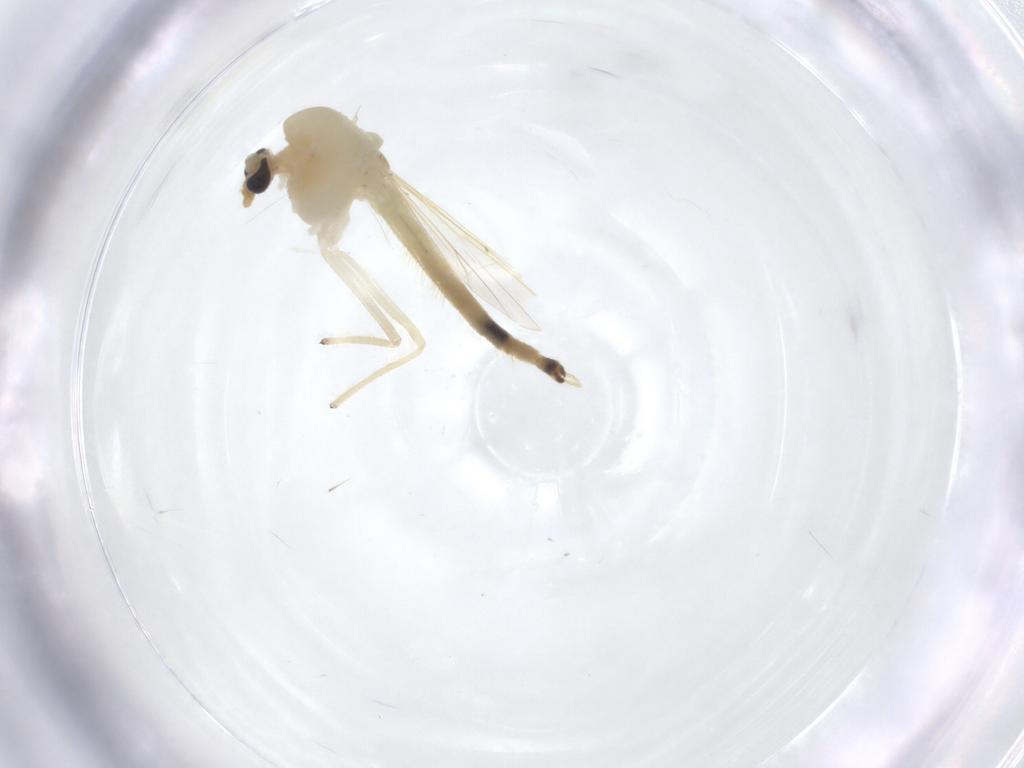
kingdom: Animalia
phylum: Arthropoda
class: Insecta
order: Diptera
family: Chironomidae
